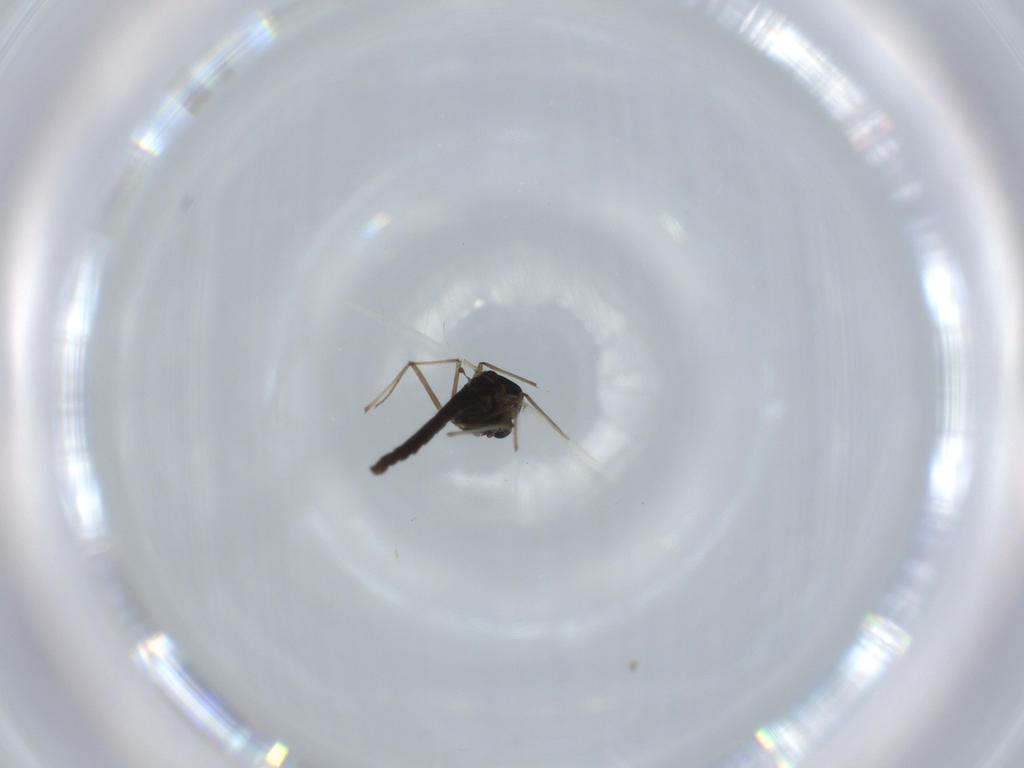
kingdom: Animalia
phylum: Arthropoda
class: Insecta
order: Diptera
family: Chironomidae
